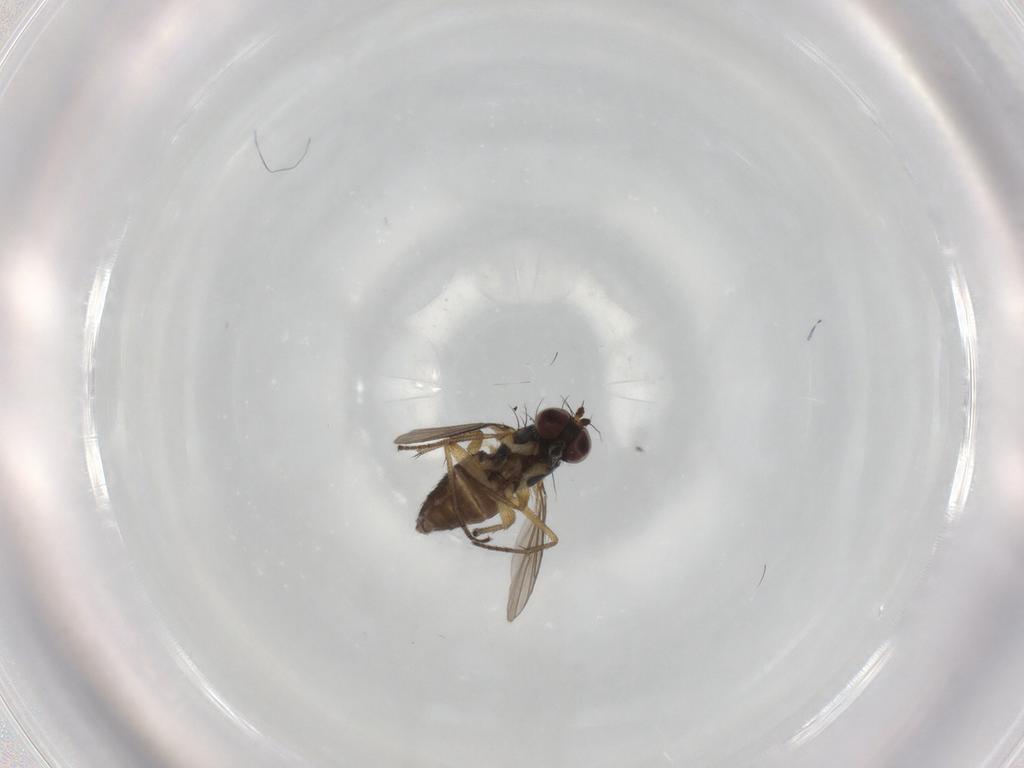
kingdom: Animalia
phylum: Arthropoda
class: Insecta
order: Diptera
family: Dolichopodidae
